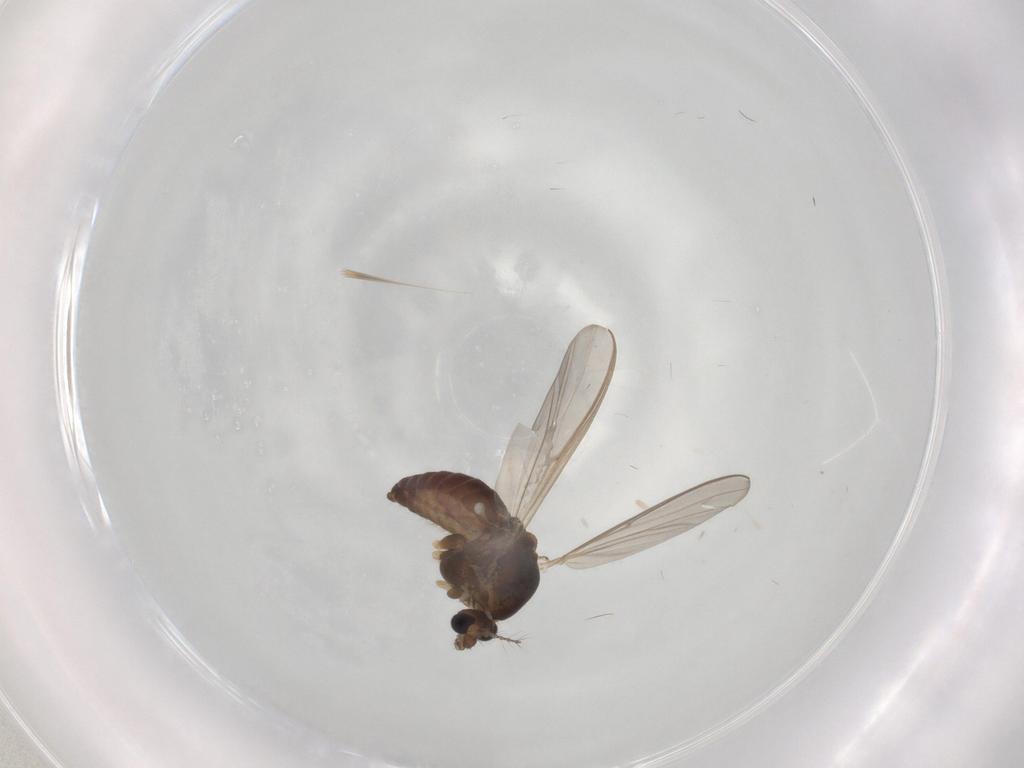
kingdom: Animalia
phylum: Arthropoda
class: Insecta
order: Diptera
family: Chironomidae
